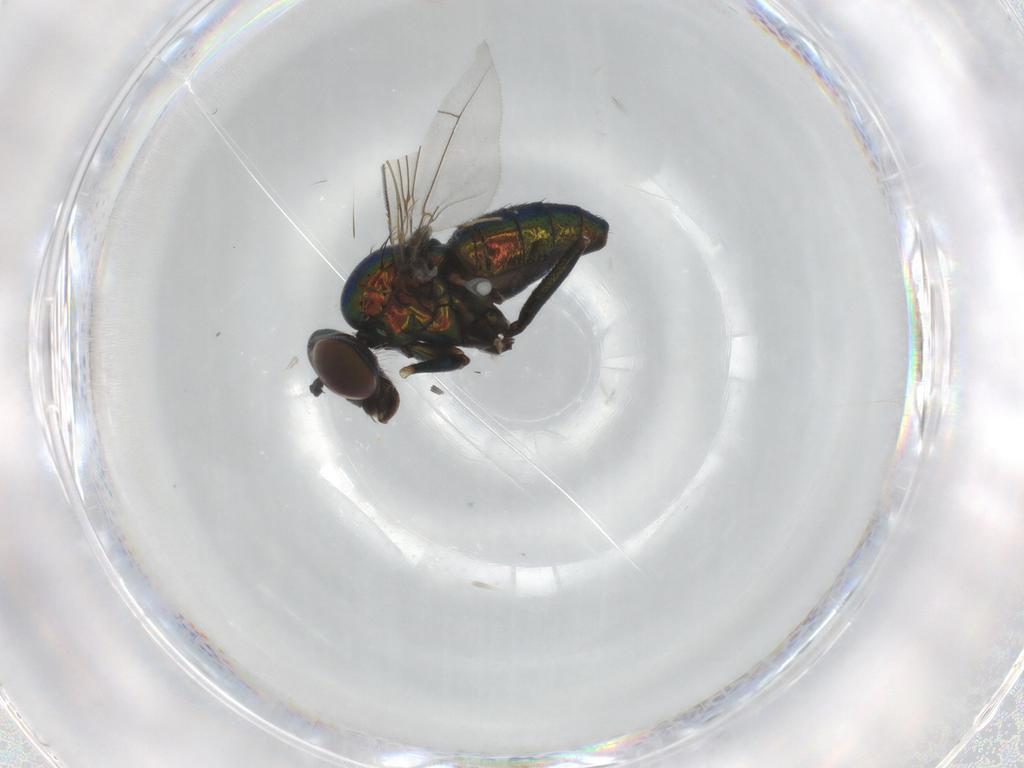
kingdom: Animalia
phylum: Arthropoda
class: Insecta
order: Diptera
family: Dolichopodidae
